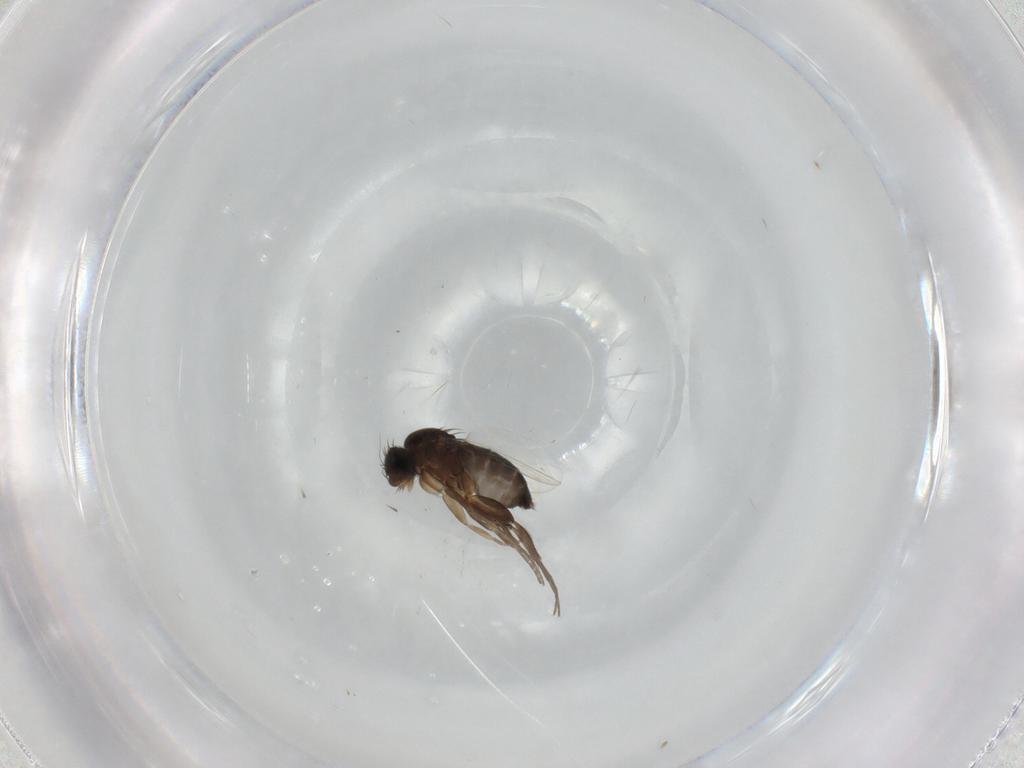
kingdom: Animalia
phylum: Arthropoda
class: Insecta
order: Diptera
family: Phoridae
